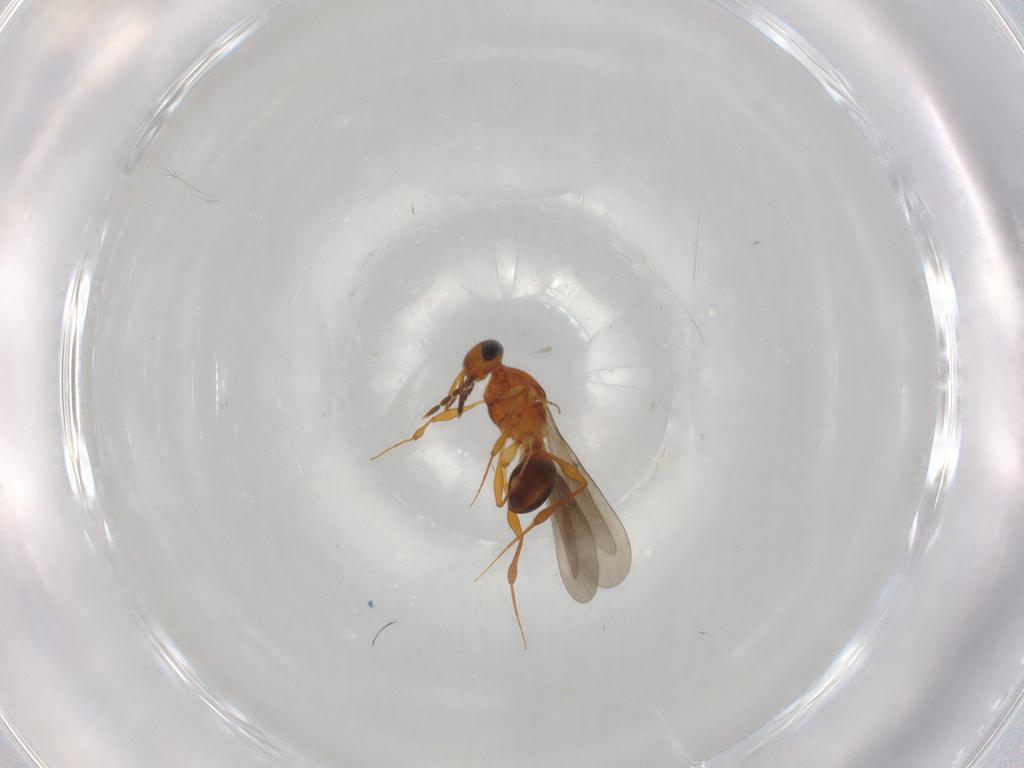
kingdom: Animalia
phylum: Arthropoda
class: Insecta
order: Hymenoptera
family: Platygastridae
